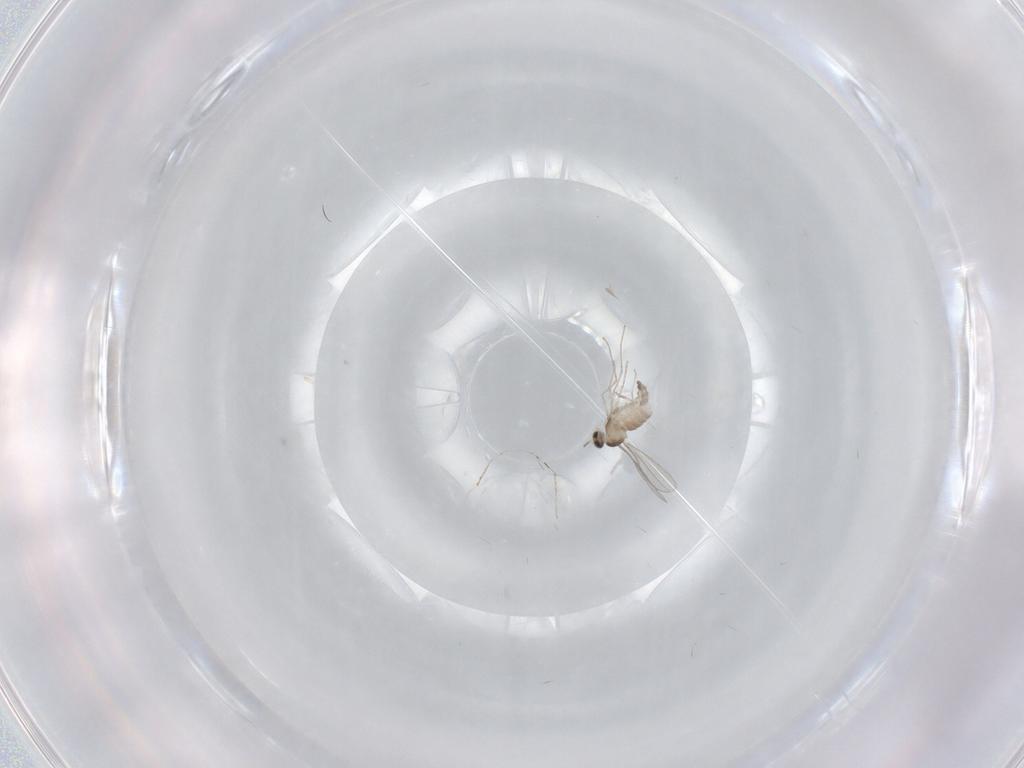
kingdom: Animalia
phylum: Arthropoda
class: Insecta
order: Diptera
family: Cecidomyiidae
